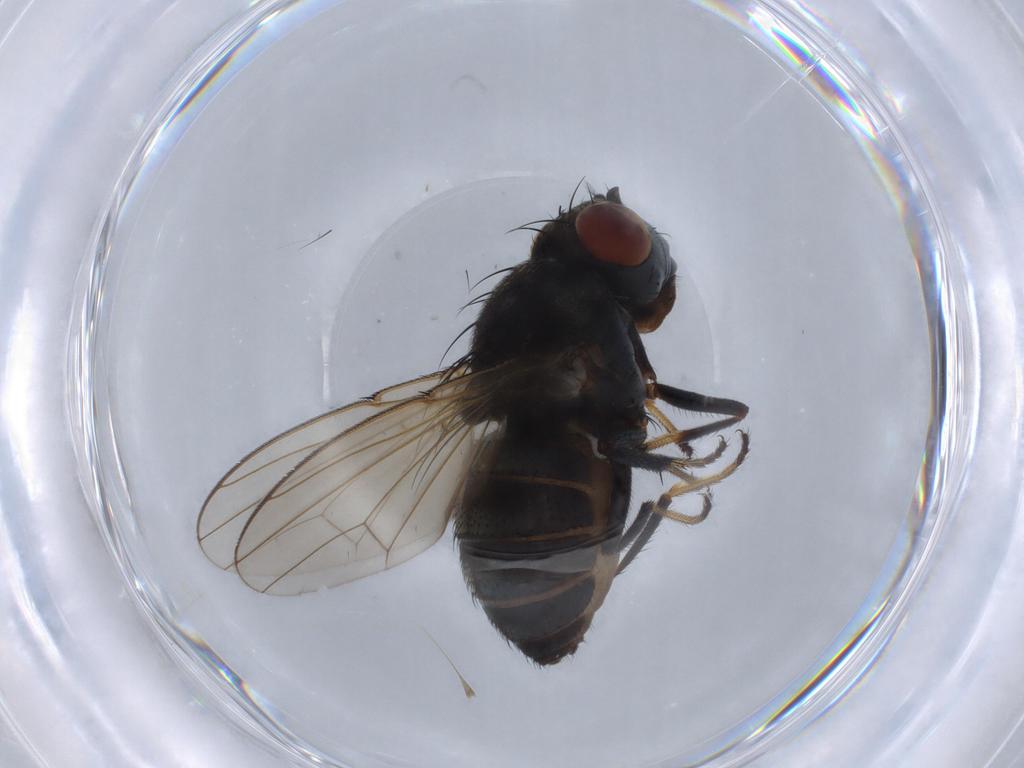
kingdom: Animalia
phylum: Arthropoda
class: Insecta
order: Diptera
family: Ephydridae
